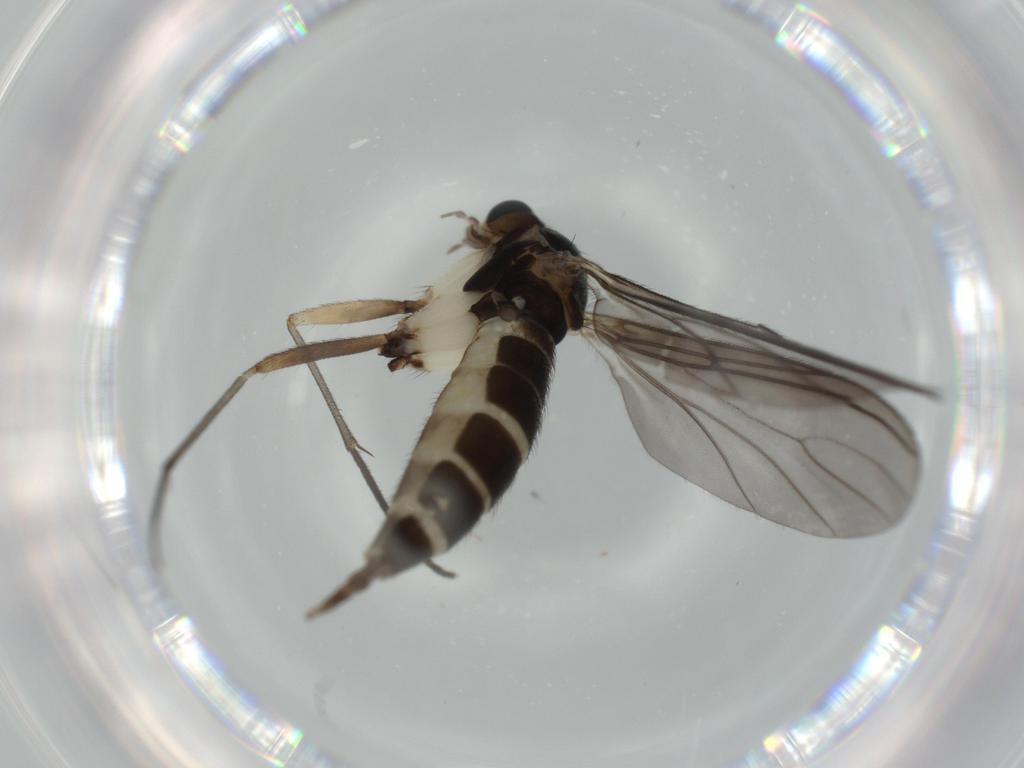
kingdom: Animalia
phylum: Arthropoda
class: Insecta
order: Diptera
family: Sciaridae
